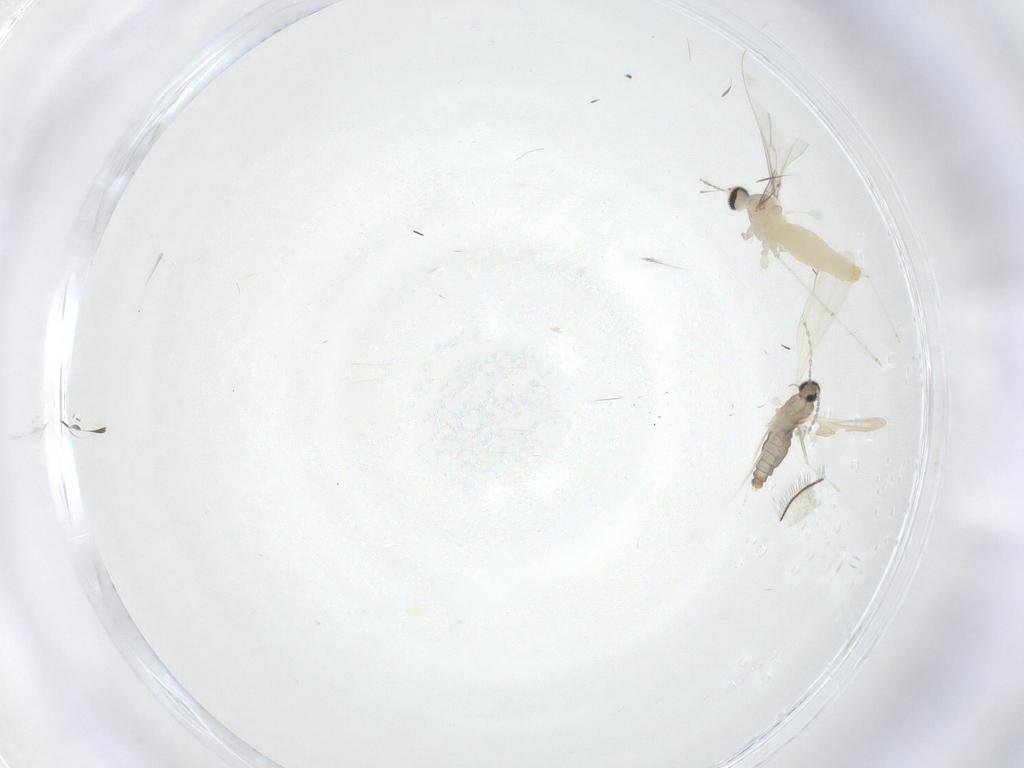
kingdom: Animalia
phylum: Arthropoda
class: Insecta
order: Diptera
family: Cecidomyiidae
